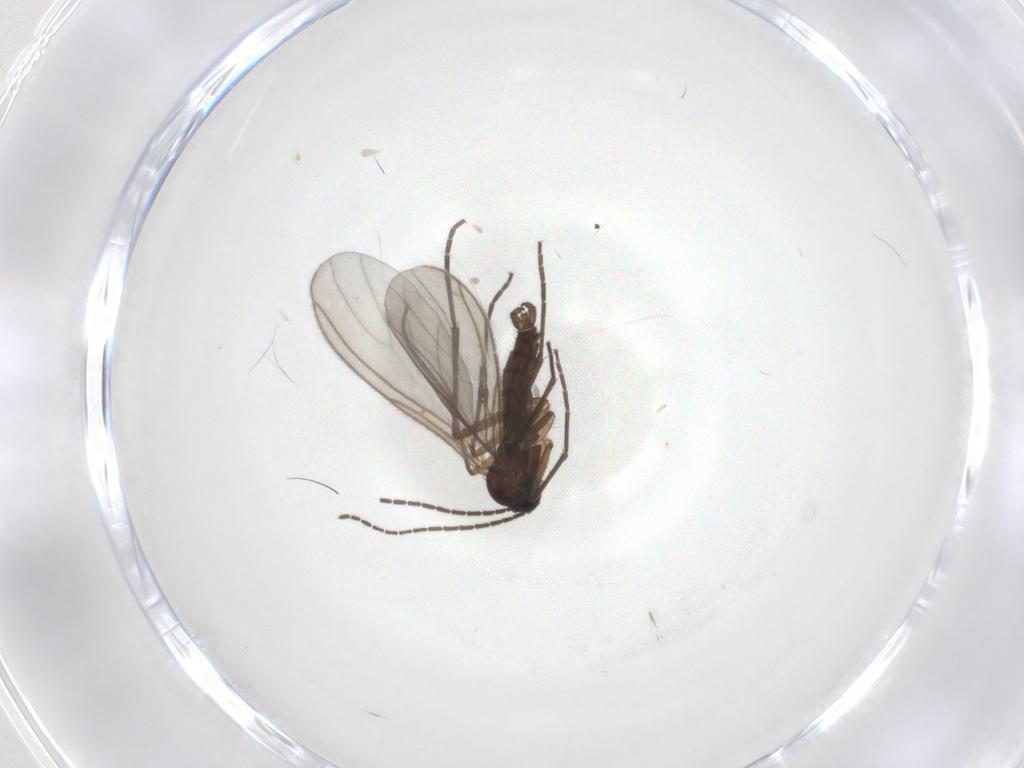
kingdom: Animalia
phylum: Arthropoda
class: Insecta
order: Diptera
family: Sciaridae
